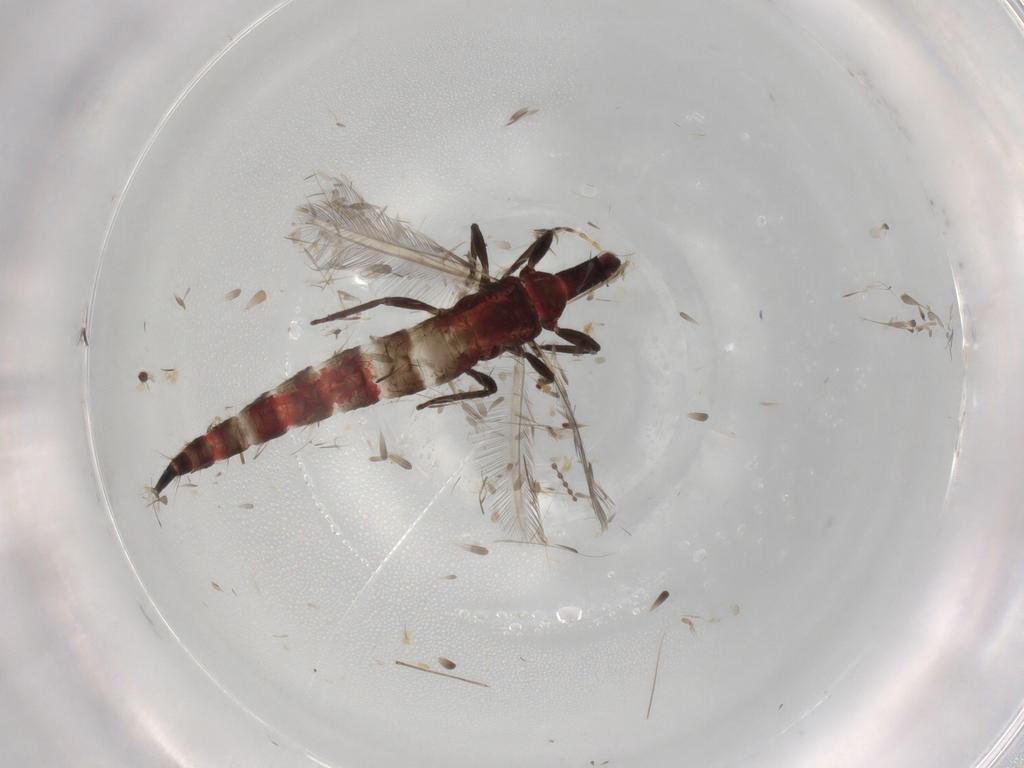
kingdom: Animalia
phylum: Arthropoda
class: Insecta
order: Thysanoptera
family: Phlaeothripidae
